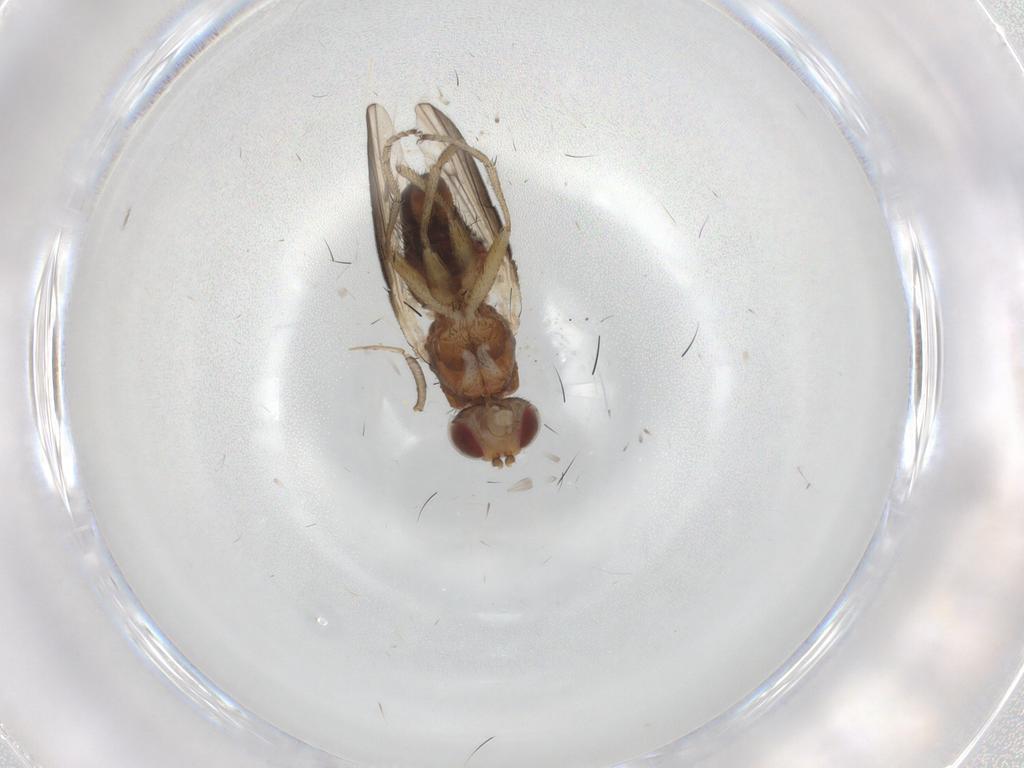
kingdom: Animalia
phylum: Arthropoda
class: Insecta
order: Diptera
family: Heleomyzidae
